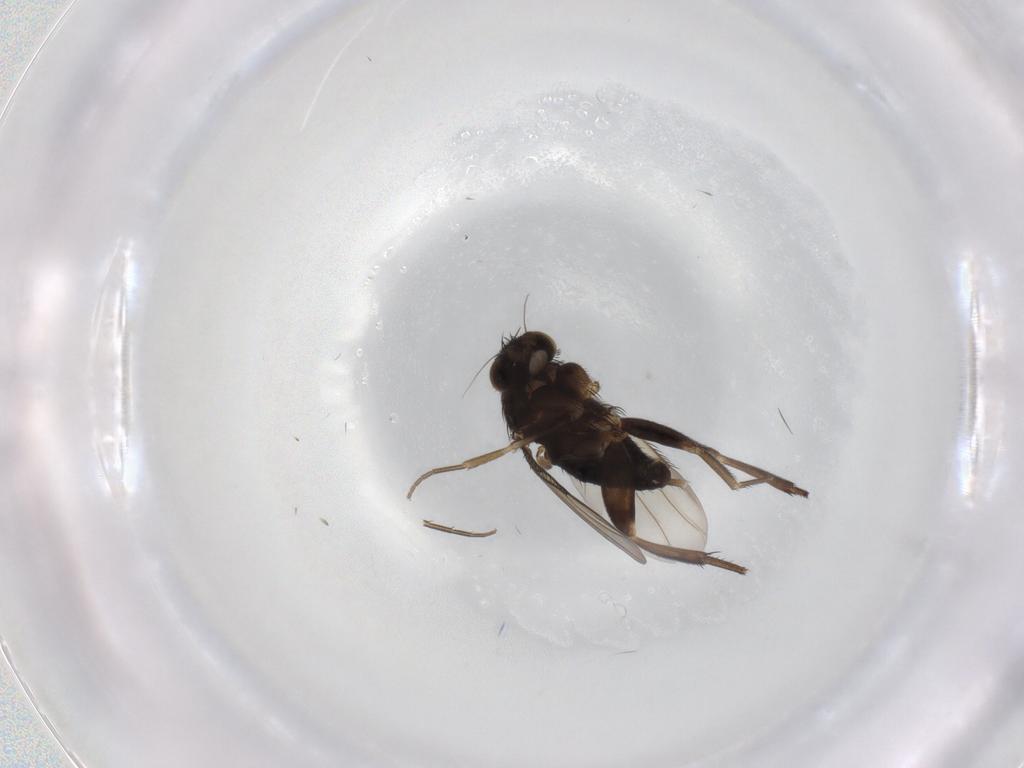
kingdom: Animalia
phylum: Arthropoda
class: Insecta
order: Diptera
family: Phoridae
